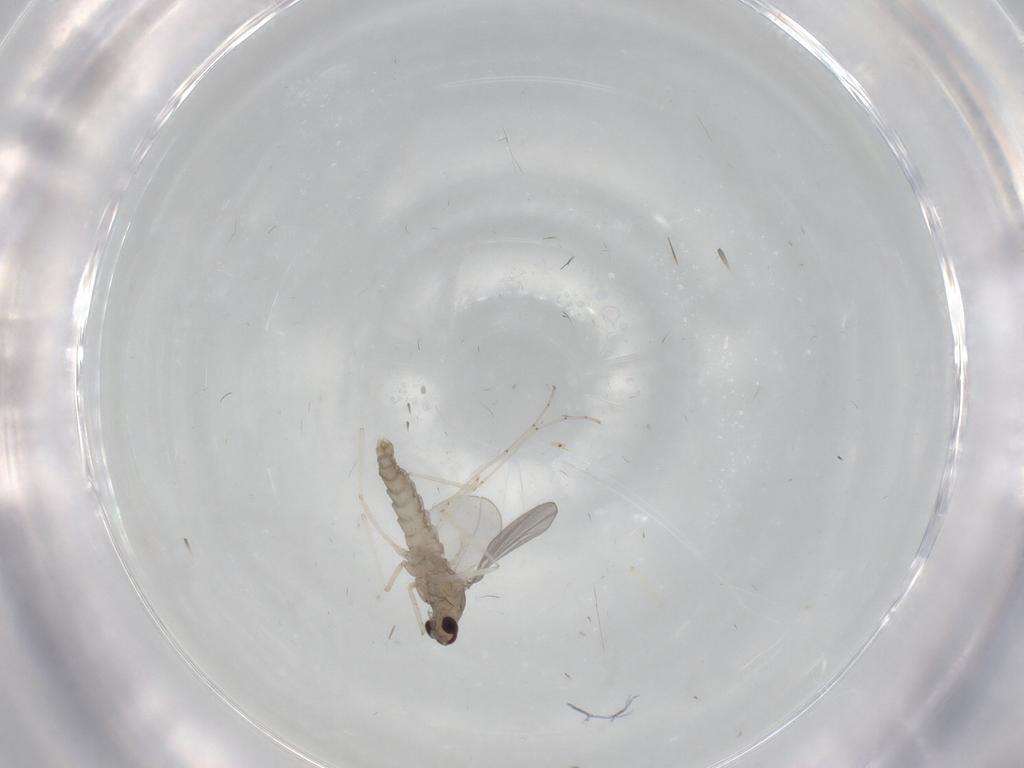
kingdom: Animalia
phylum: Arthropoda
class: Insecta
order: Diptera
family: Cecidomyiidae
